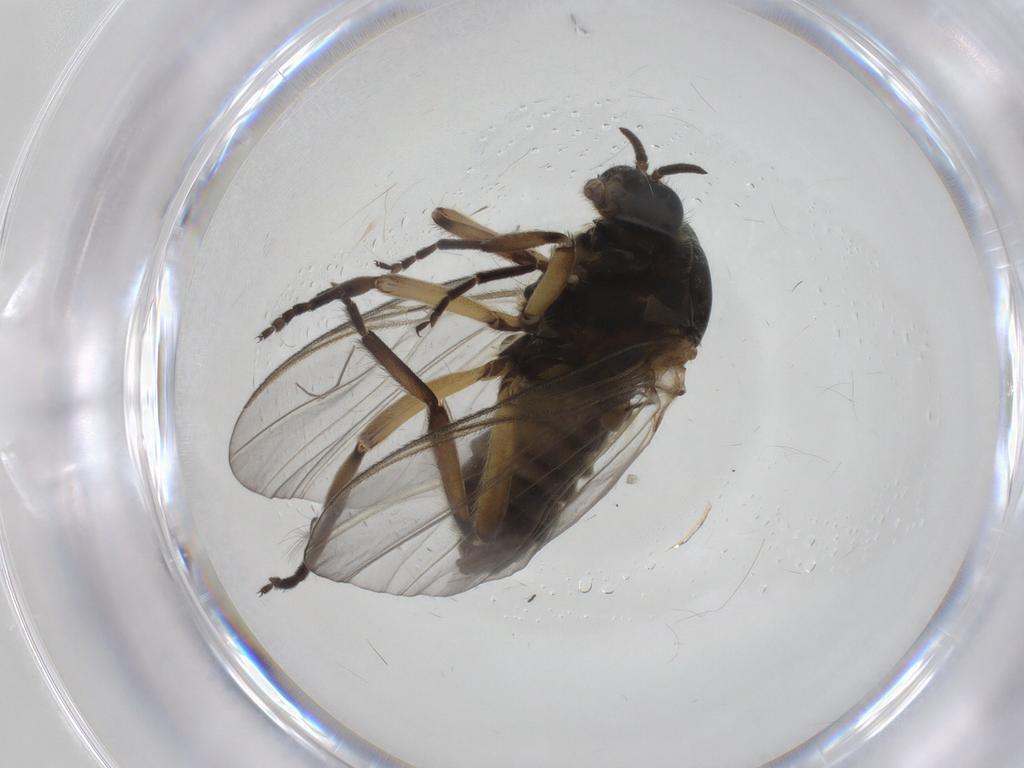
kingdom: Animalia
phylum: Arthropoda
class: Insecta
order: Diptera
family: Simuliidae
